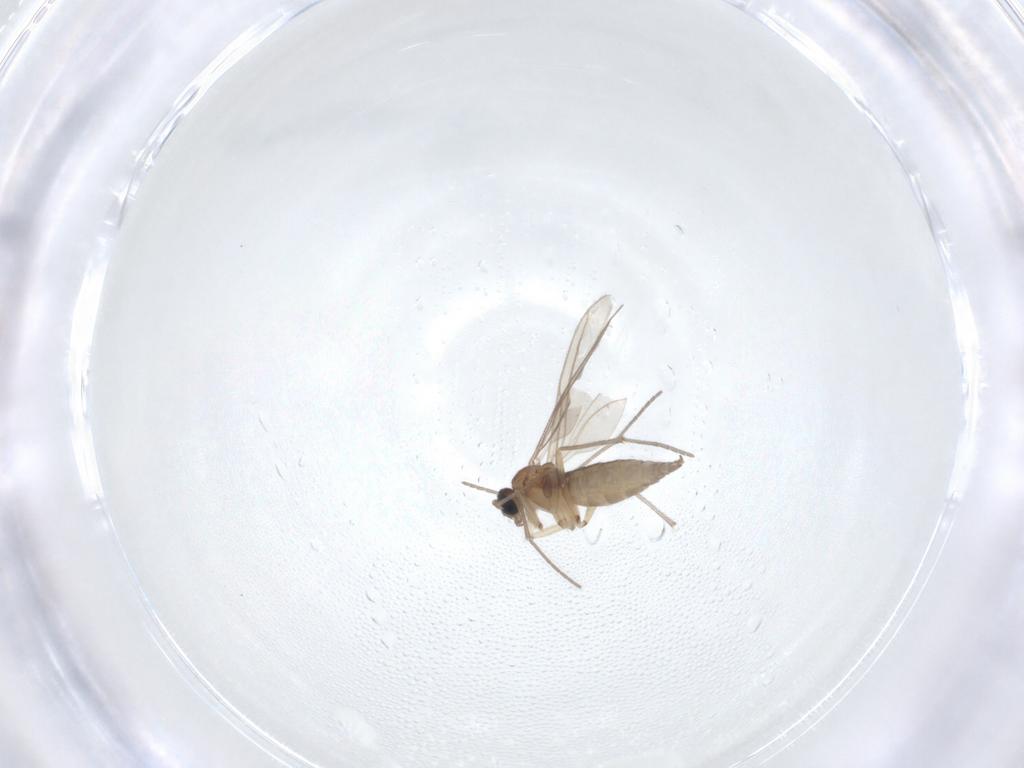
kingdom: Animalia
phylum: Arthropoda
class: Insecta
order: Diptera
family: Sciaridae
